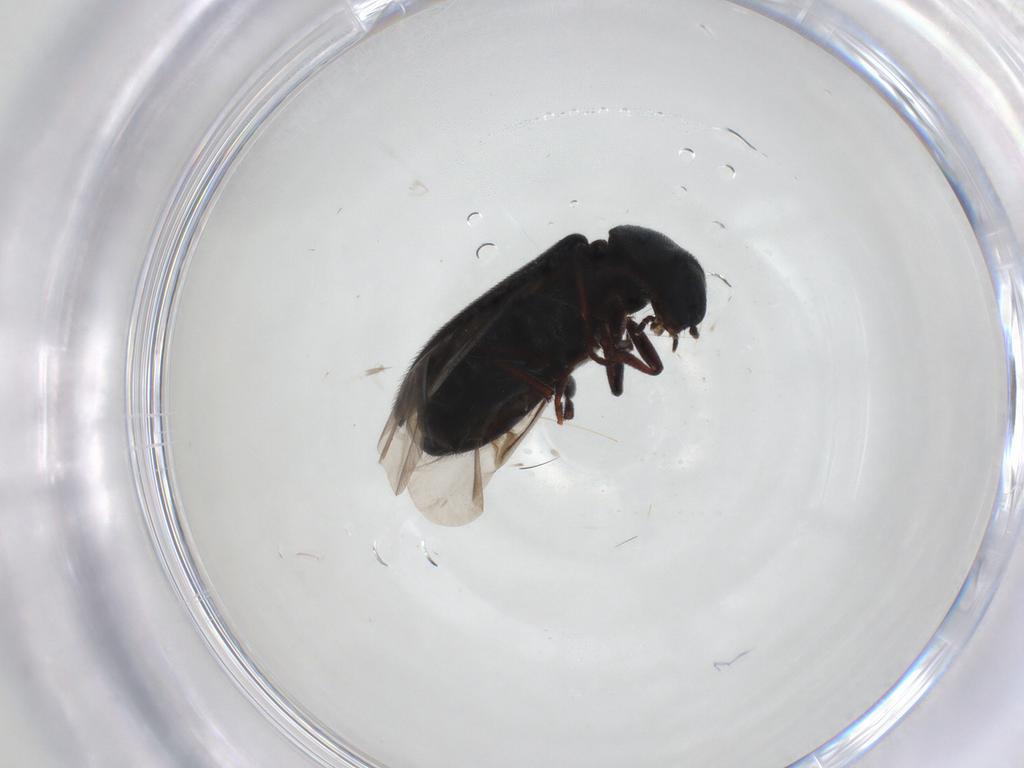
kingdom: Animalia
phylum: Arthropoda
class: Insecta
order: Coleoptera
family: Melyridae
